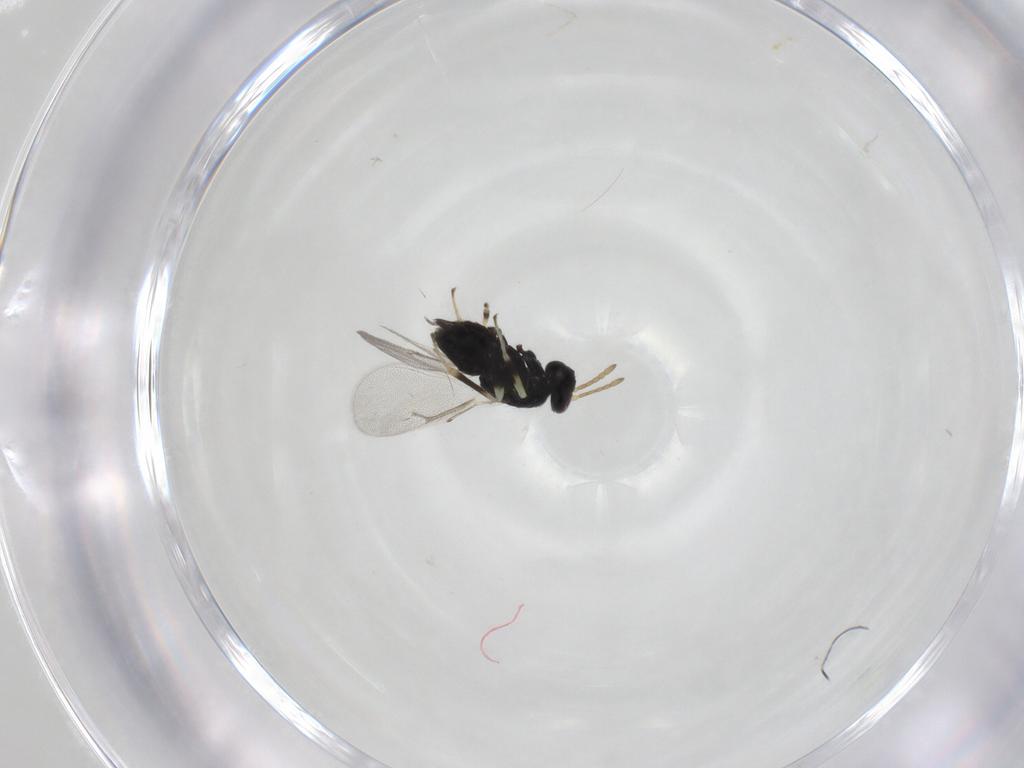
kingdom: Animalia
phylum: Arthropoda
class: Insecta
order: Hymenoptera
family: Eulophidae
